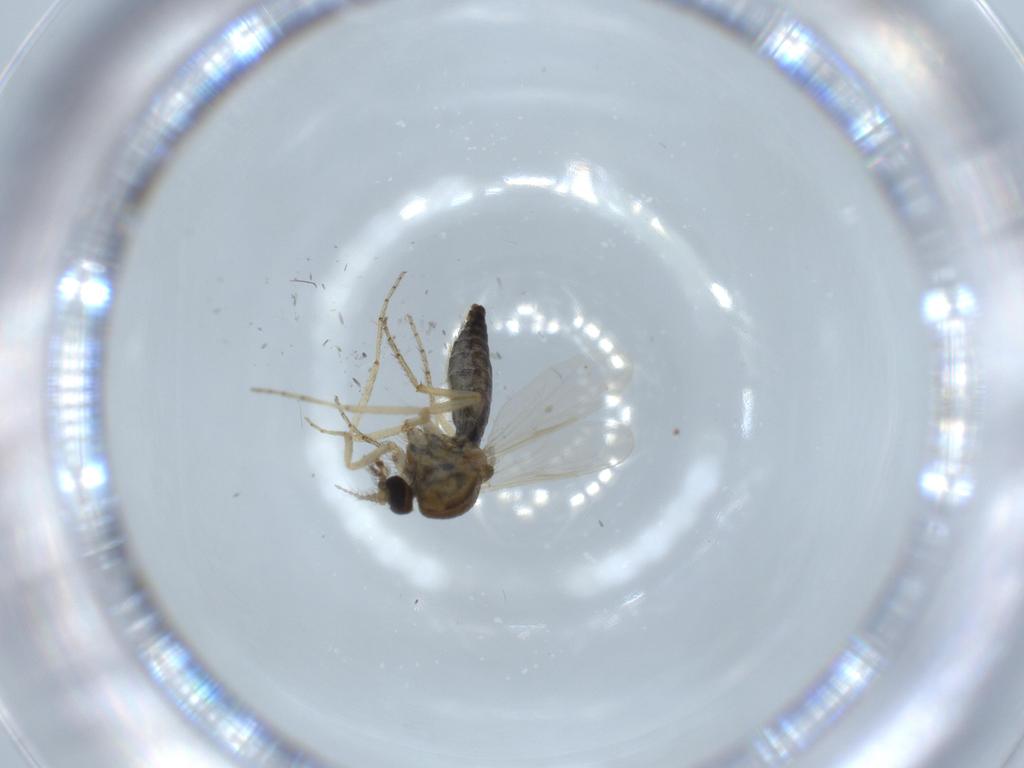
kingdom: Animalia
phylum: Arthropoda
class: Insecta
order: Diptera
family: Ceratopogonidae
